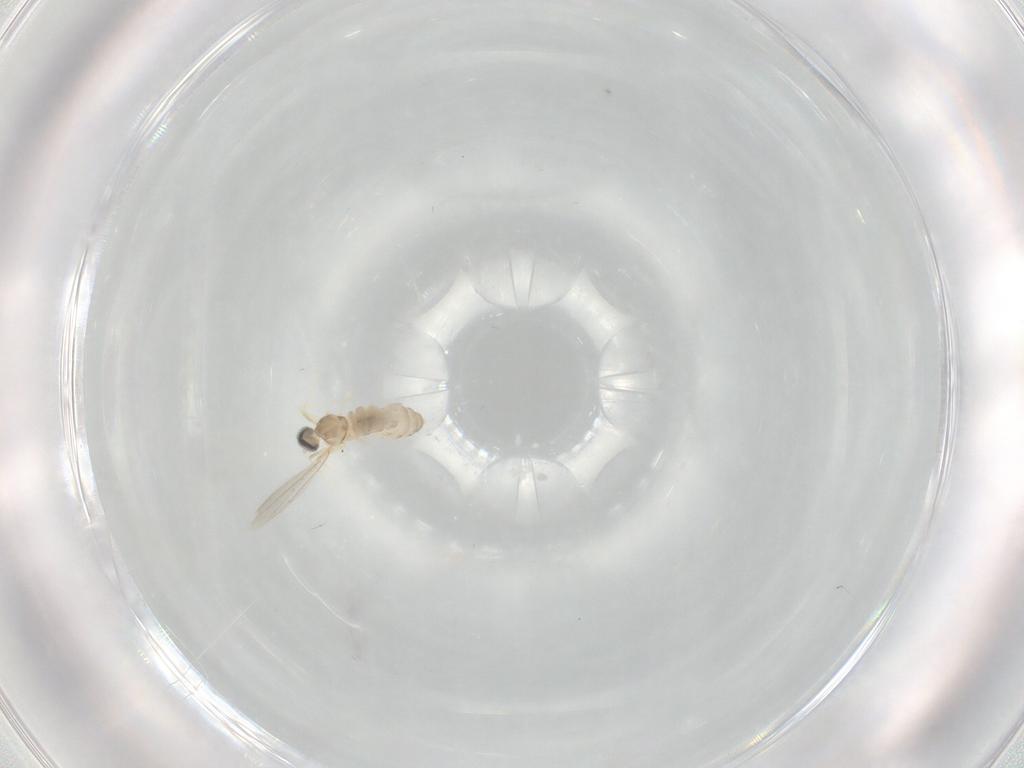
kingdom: Animalia
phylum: Arthropoda
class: Insecta
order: Diptera
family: Cecidomyiidae
